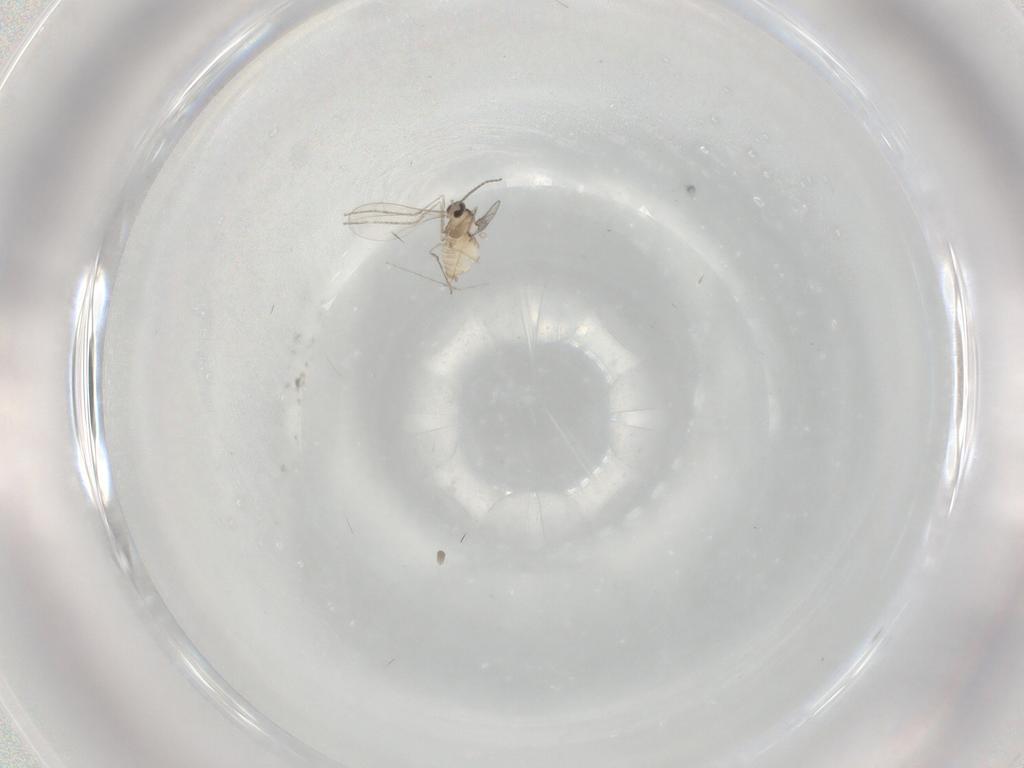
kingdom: Animalia
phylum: Arthropoda
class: Insecta
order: Diptera
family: Cecidomyiidae
